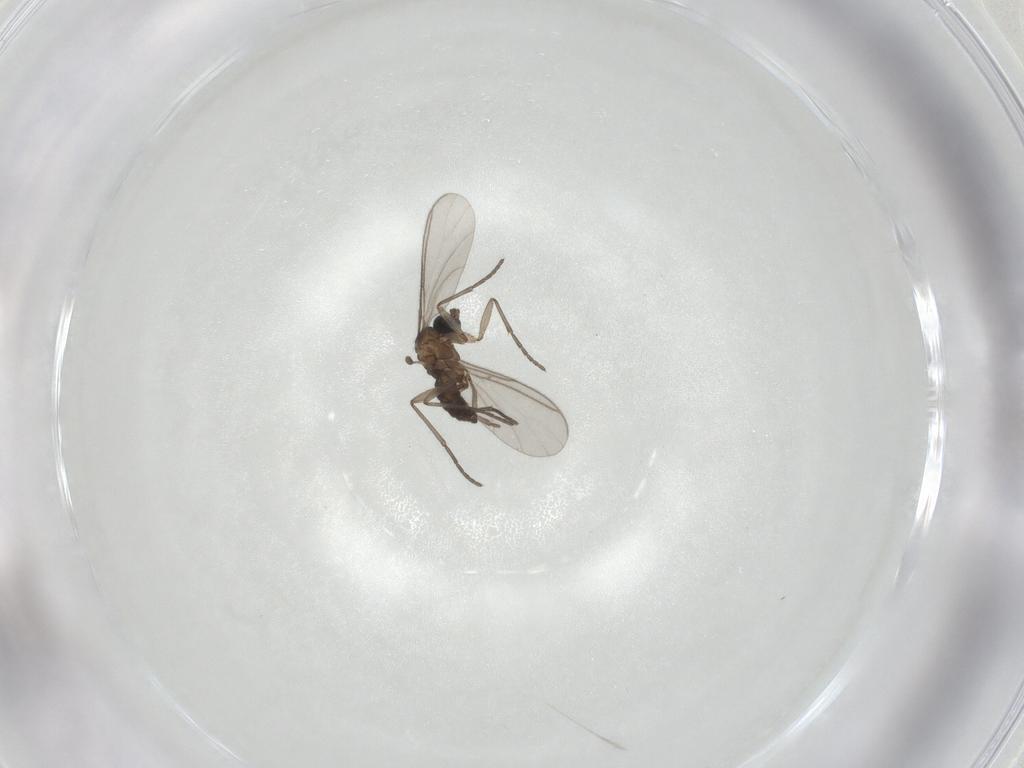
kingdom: Animalia
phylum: Arthropoda
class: Insecta
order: Diptera
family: Sciaridae
